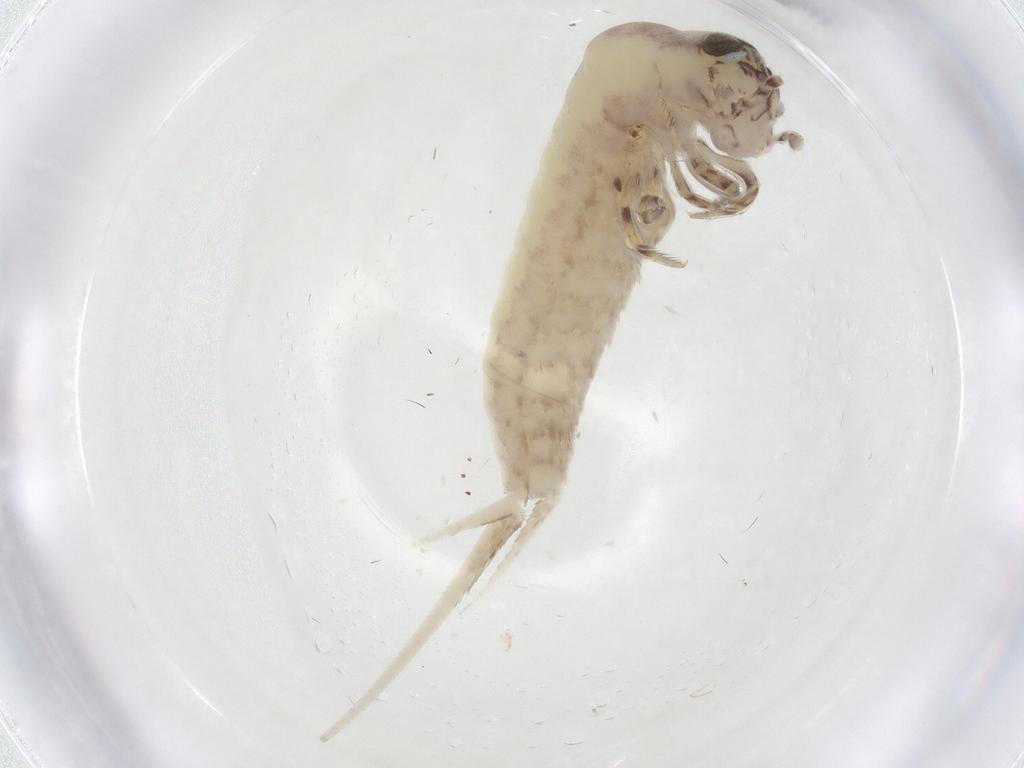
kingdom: Animalia
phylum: Arthropoda
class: Insecta
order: Archaeognatha
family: Meinertellidae
